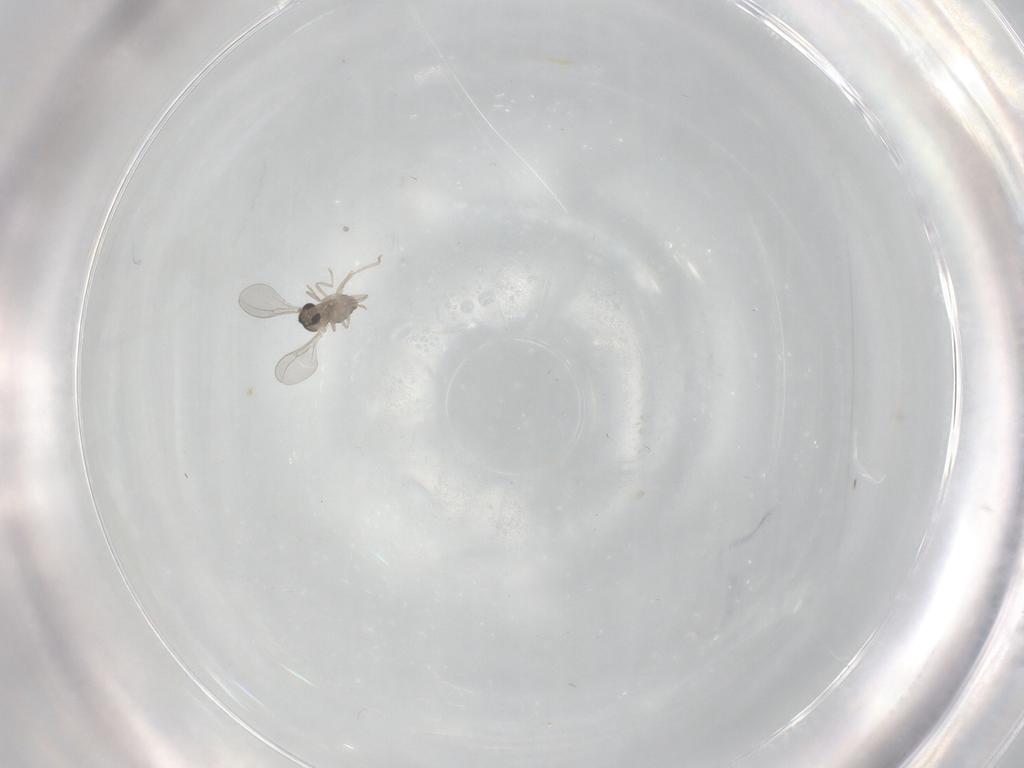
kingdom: Animalia
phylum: Arthropoda
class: Insecta
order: Diptera
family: Cecidomyiidae
